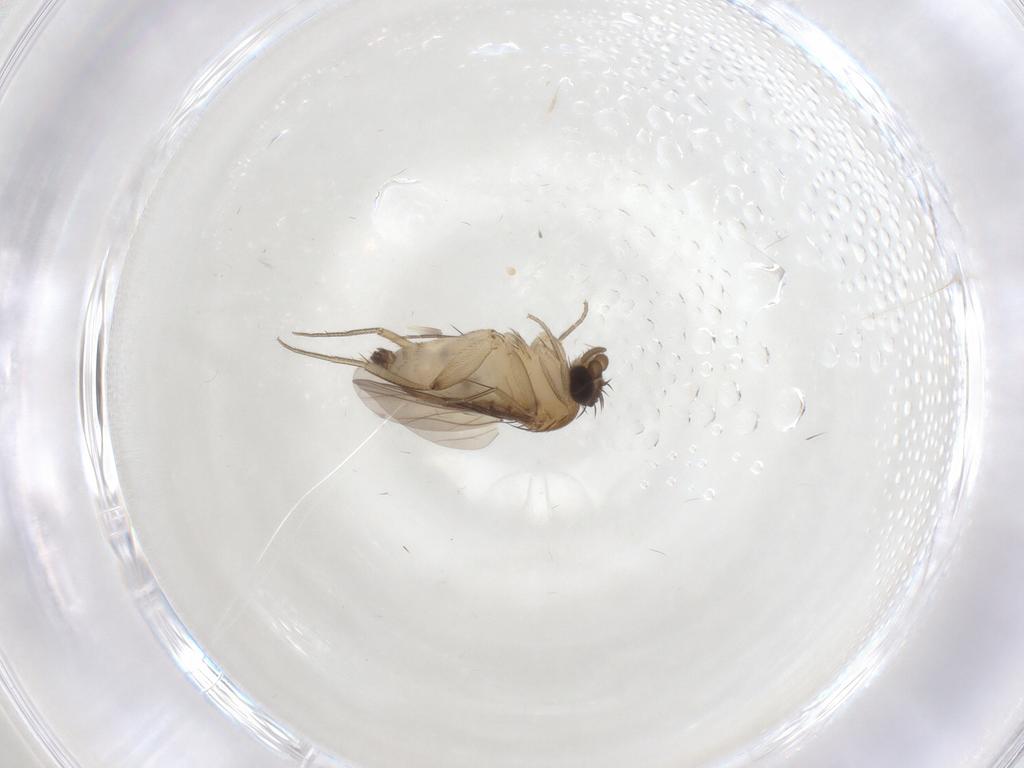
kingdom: Animalia
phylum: Arthropoda
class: Insecta
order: Diptera
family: Phoridae
